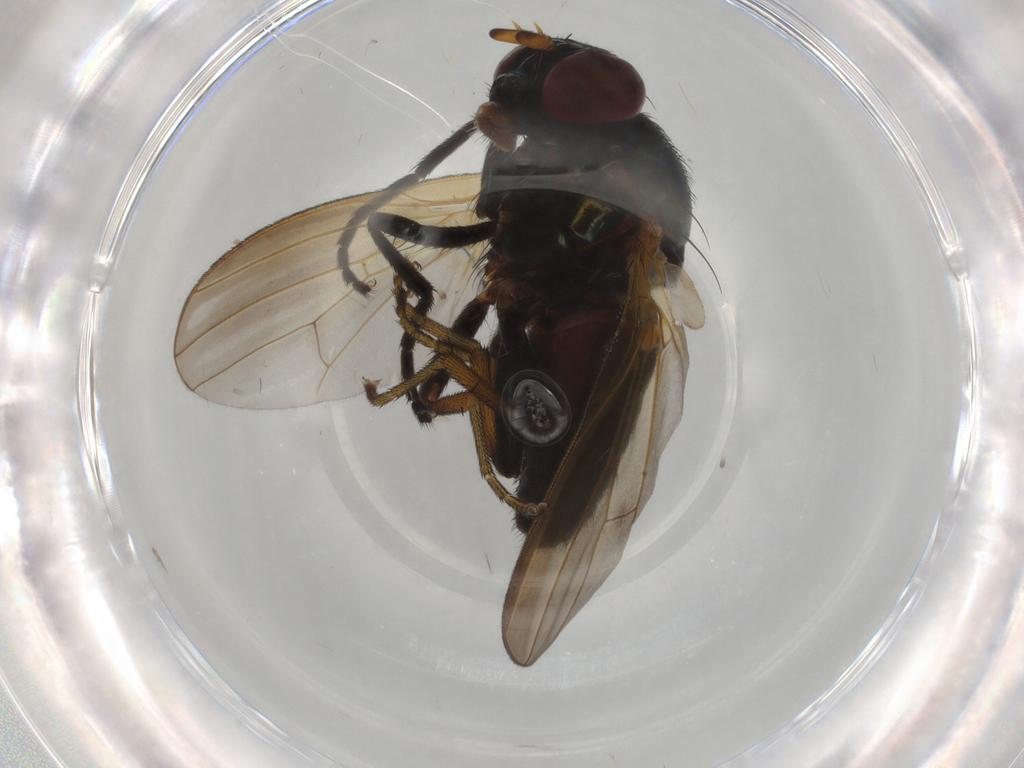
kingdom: Animalia
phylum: Arthropoda
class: Insecta
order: Diptera
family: Lauxaniidae
